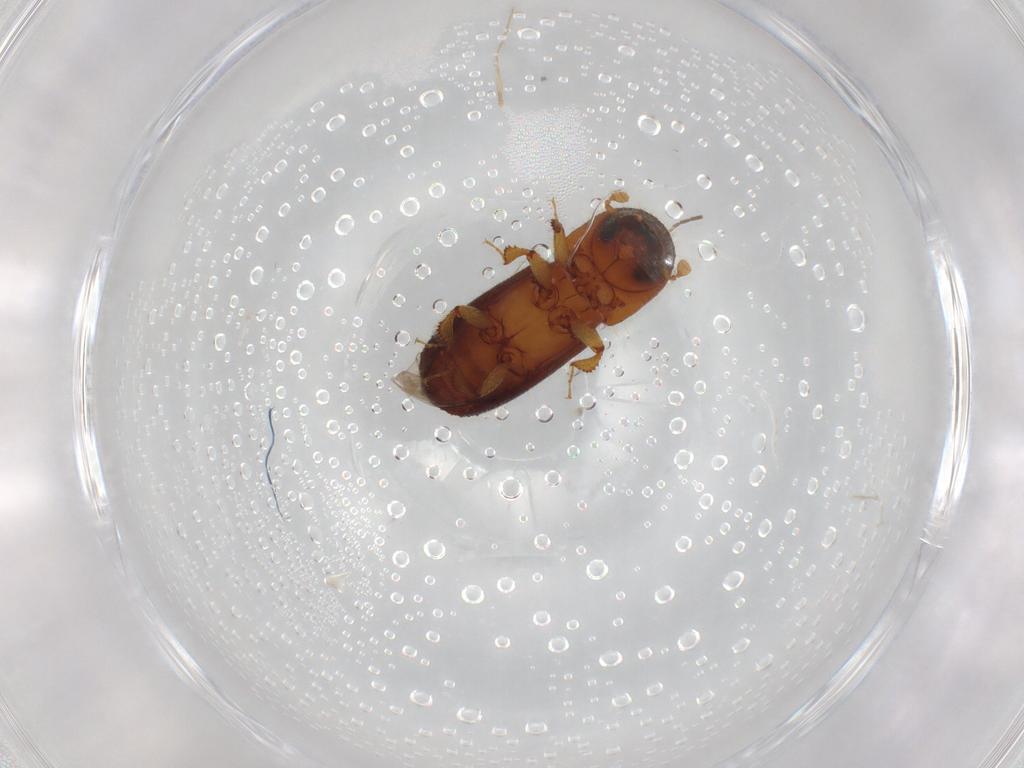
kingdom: Animalia
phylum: Arthropoda
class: Insecta
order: Coleoptera
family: Curculionidae
